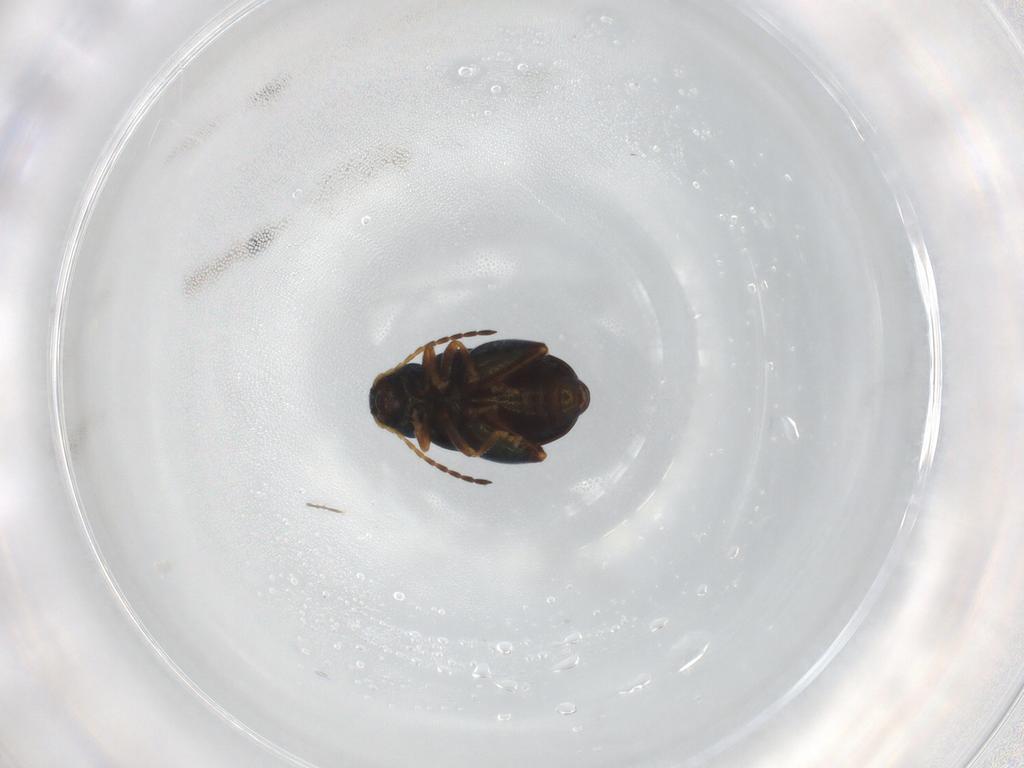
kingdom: Animalia
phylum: Arthropoda
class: Insecta
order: Coleoptera
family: Chrysomelidae
